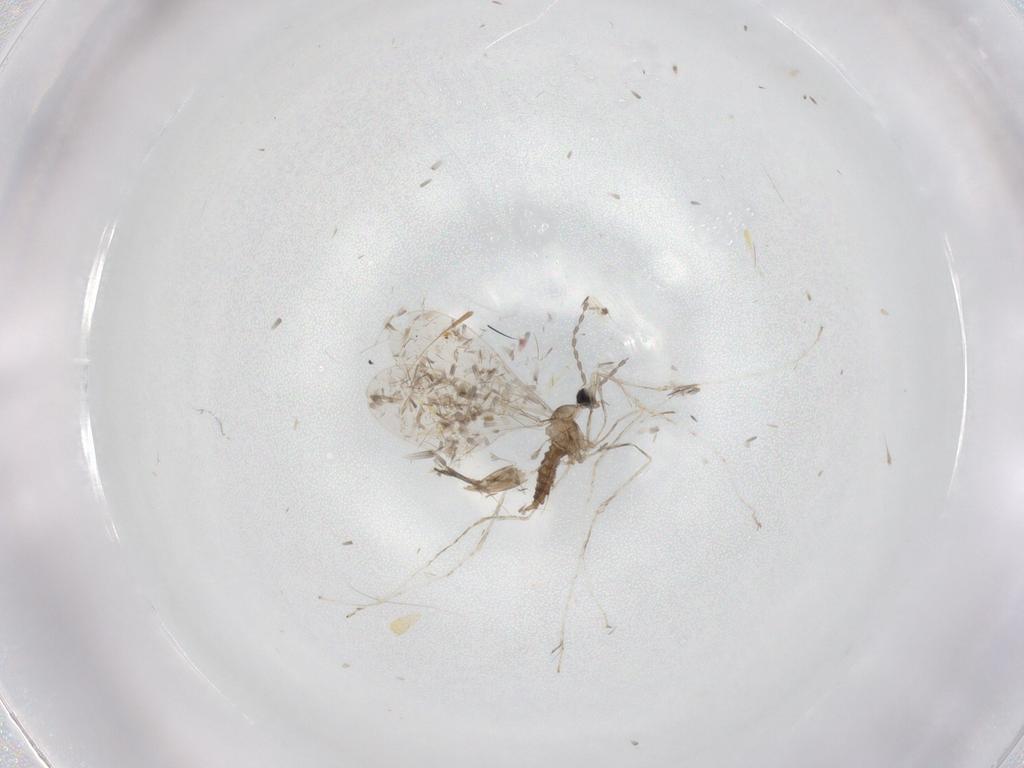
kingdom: Animalia
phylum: Arthropoda
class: Insecta
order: Diptera
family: Cecidomyiidae
